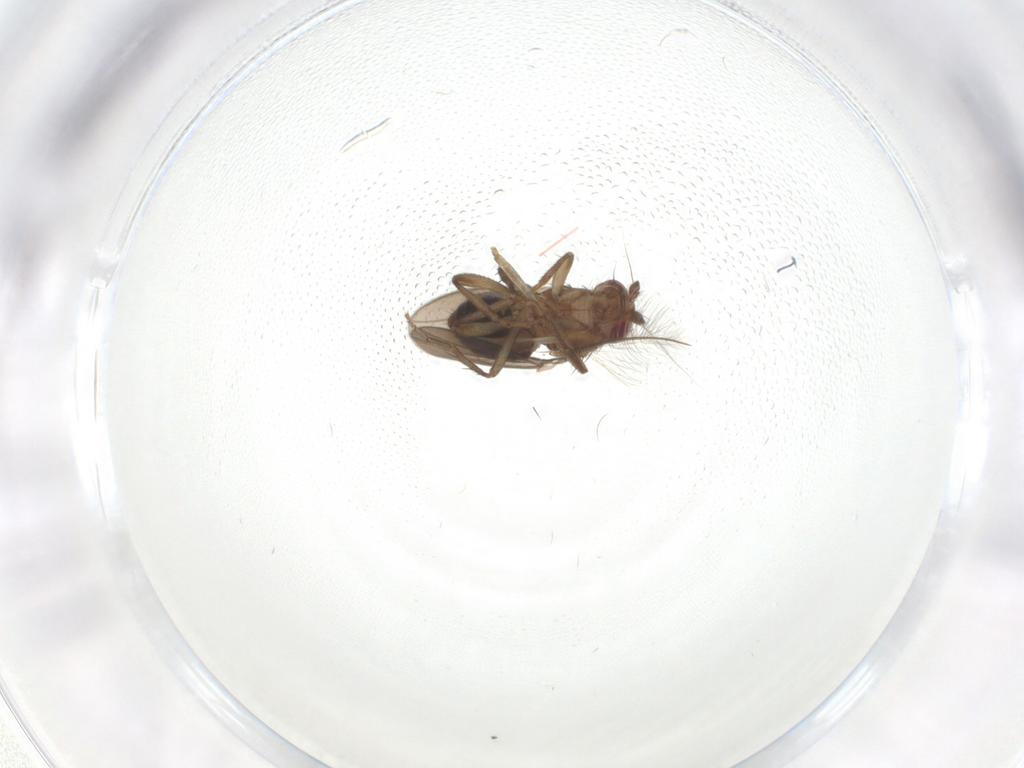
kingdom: Animalia
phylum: Arthropoda
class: Insecta
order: Diptera
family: Sphaeroceridae
